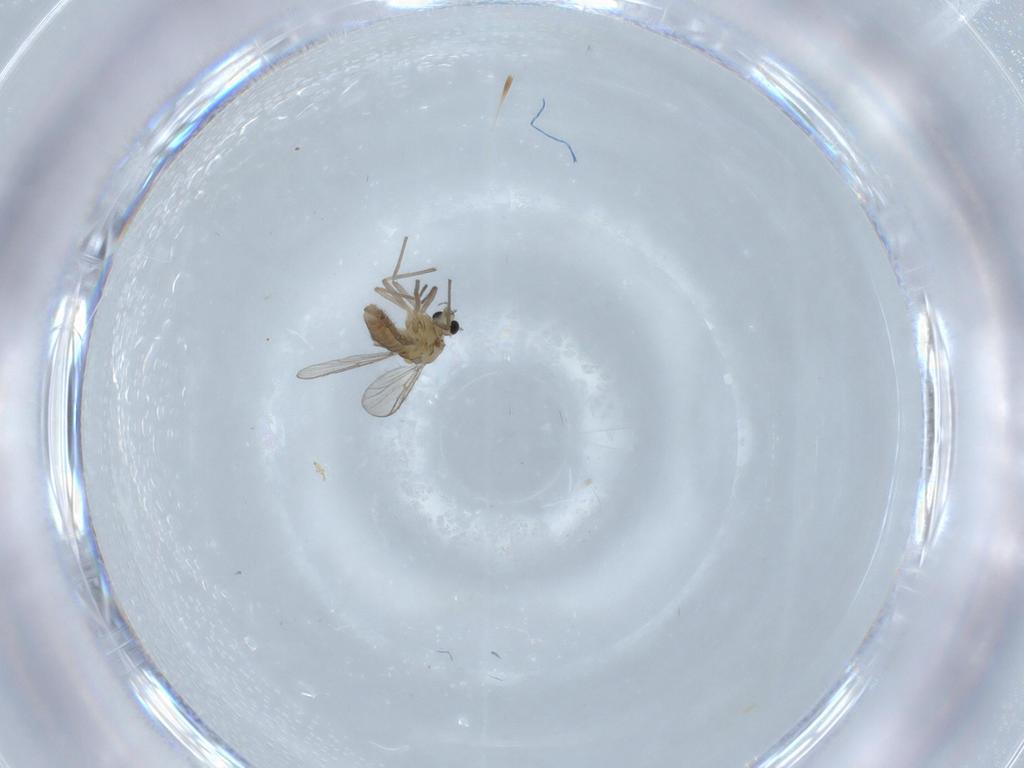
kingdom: Animalia
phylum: Arthropoda
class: Insecta
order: Diptera
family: Chironomidae
